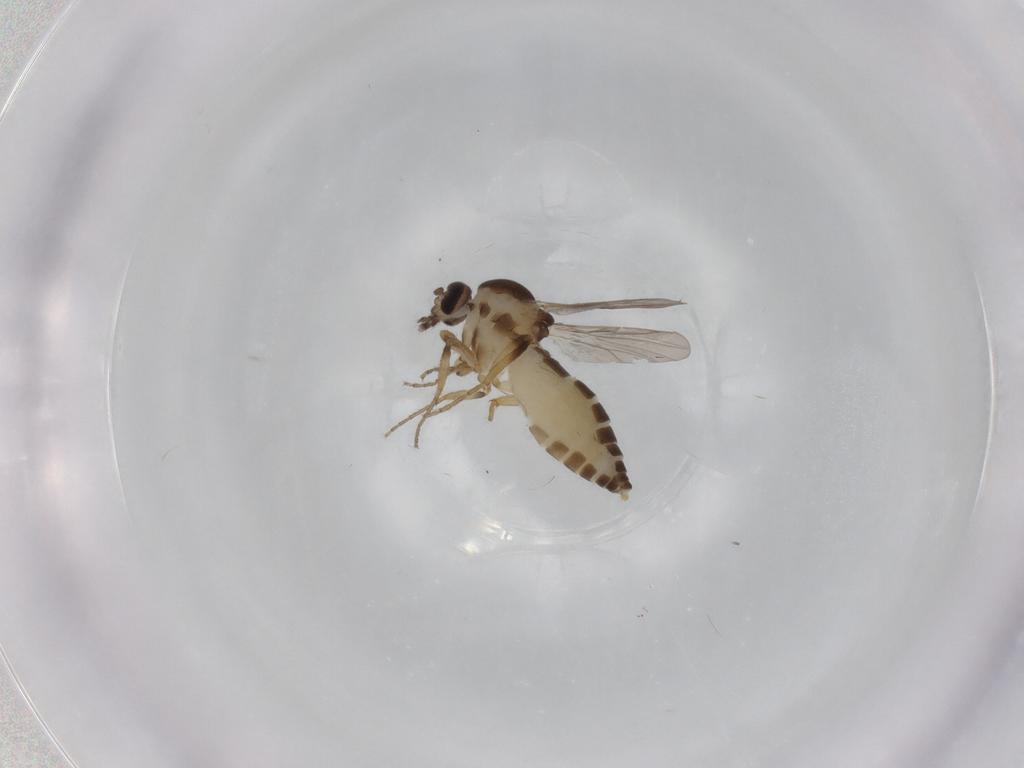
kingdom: Animalia
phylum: Arthropoda
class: Insecta
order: Diptera
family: Ceratopogonidae
